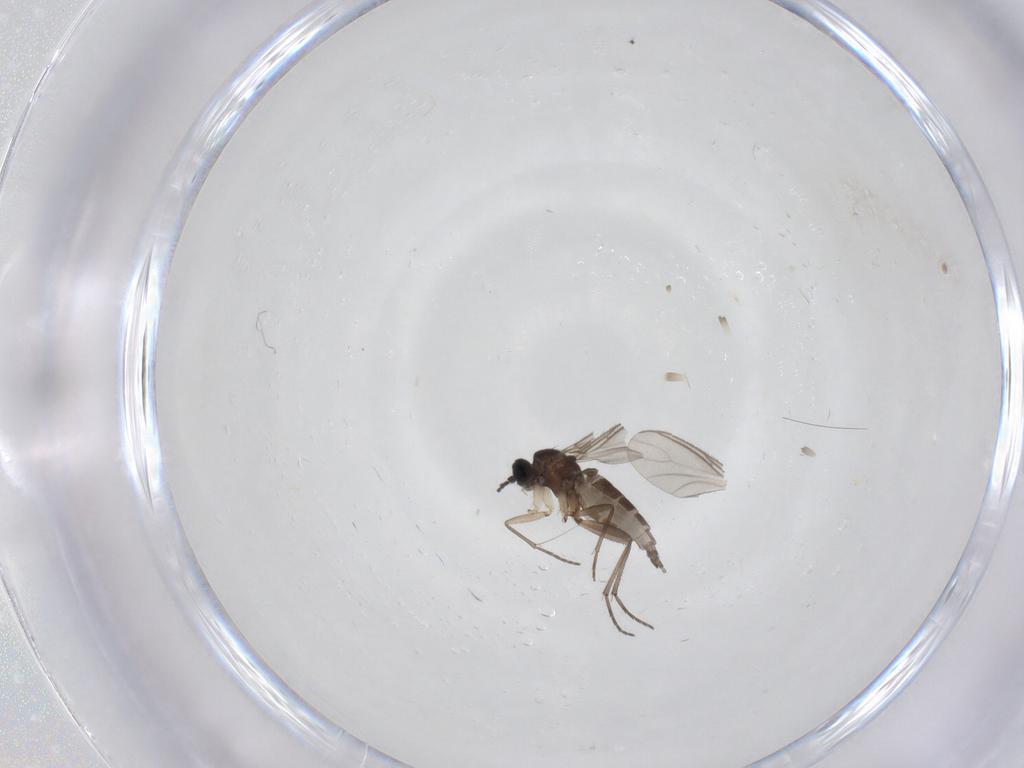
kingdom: Animalia
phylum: Arthropoda
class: Insecta
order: Diptera
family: Sciaridae
